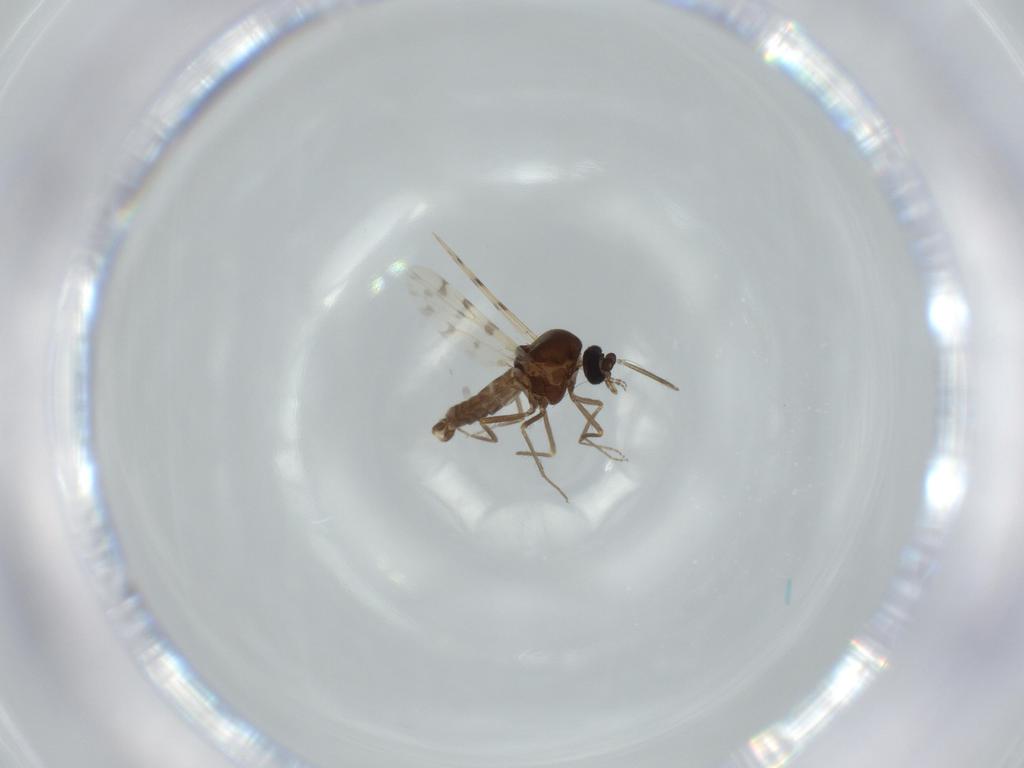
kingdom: Animalia
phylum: Arthropoda
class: Insecta
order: Diptera
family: Ceratopogonidae
